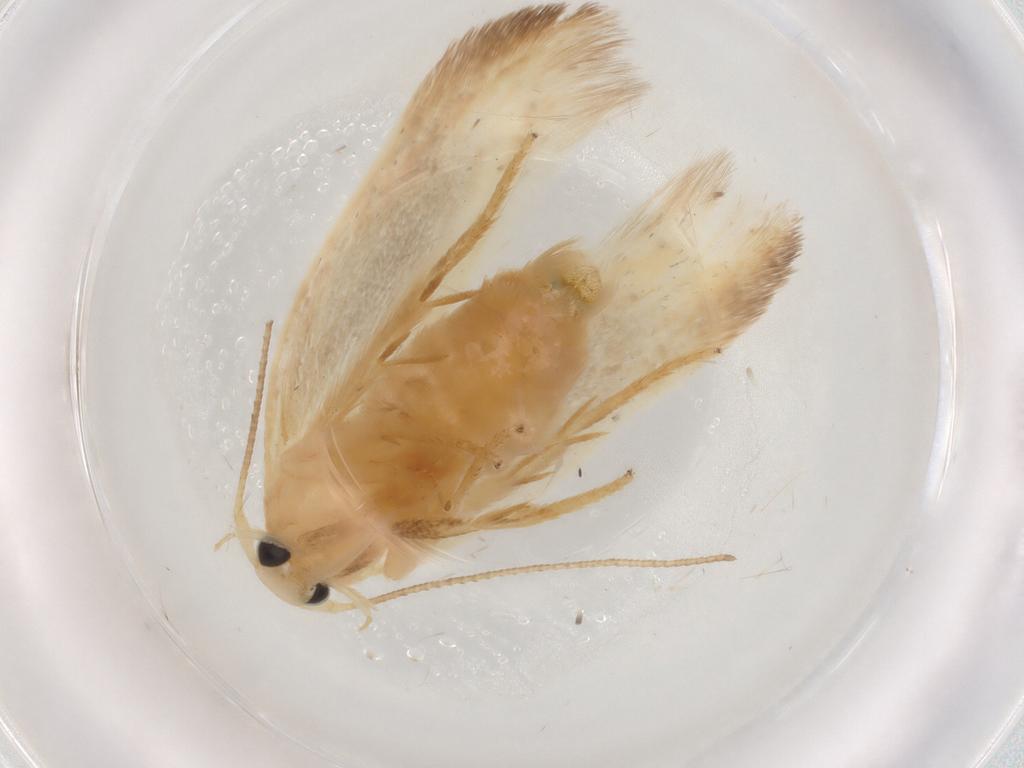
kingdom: Animalia
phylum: Arthropoda
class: Insecta
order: Lepidoptera
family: Geometridae
